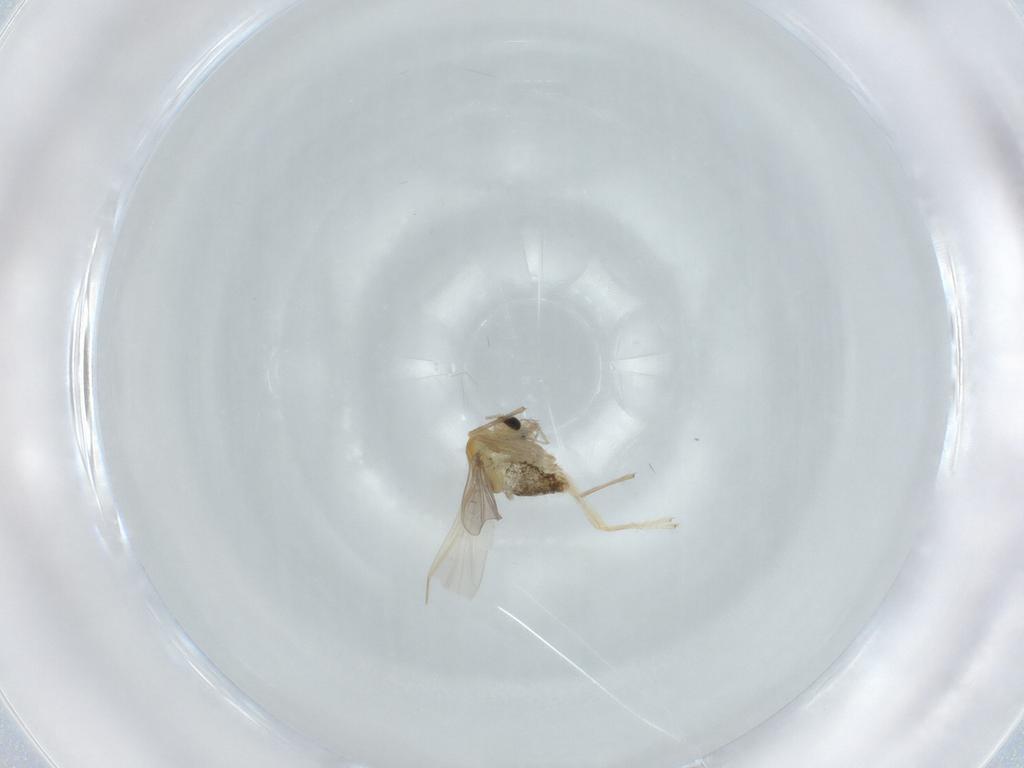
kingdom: Animalia
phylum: Arthropoda
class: Insecta
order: Diptera
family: Chironomidae
